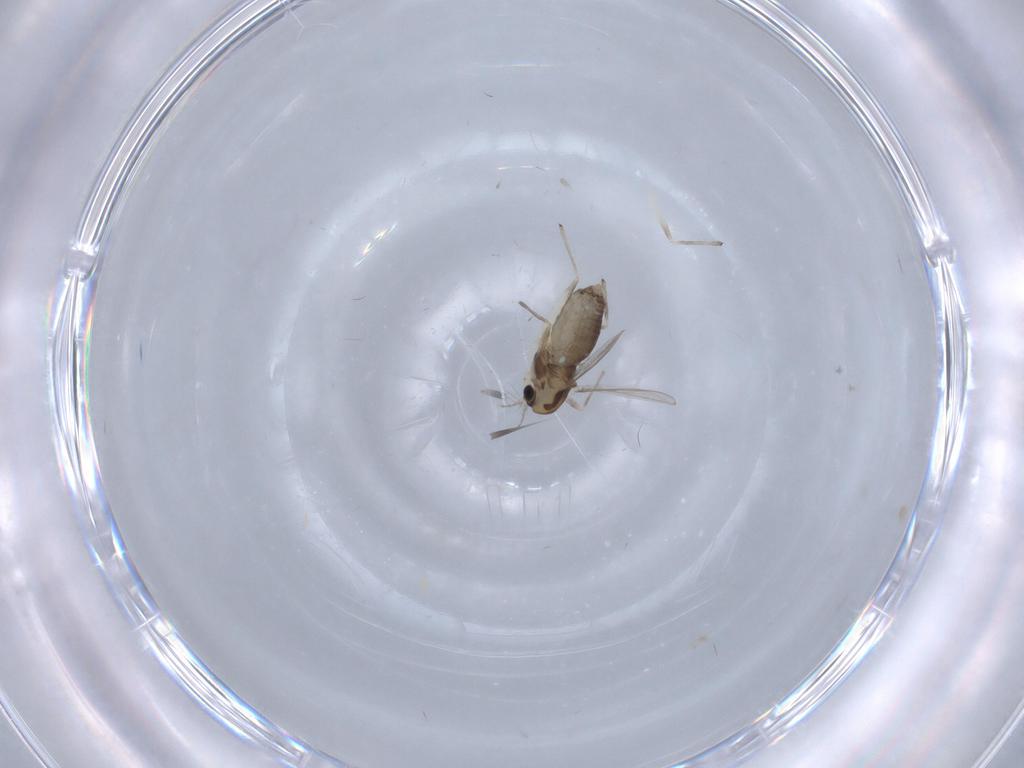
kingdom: Animalia
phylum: Arthropoda
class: Insecta
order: Diptera
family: Chironomidae
